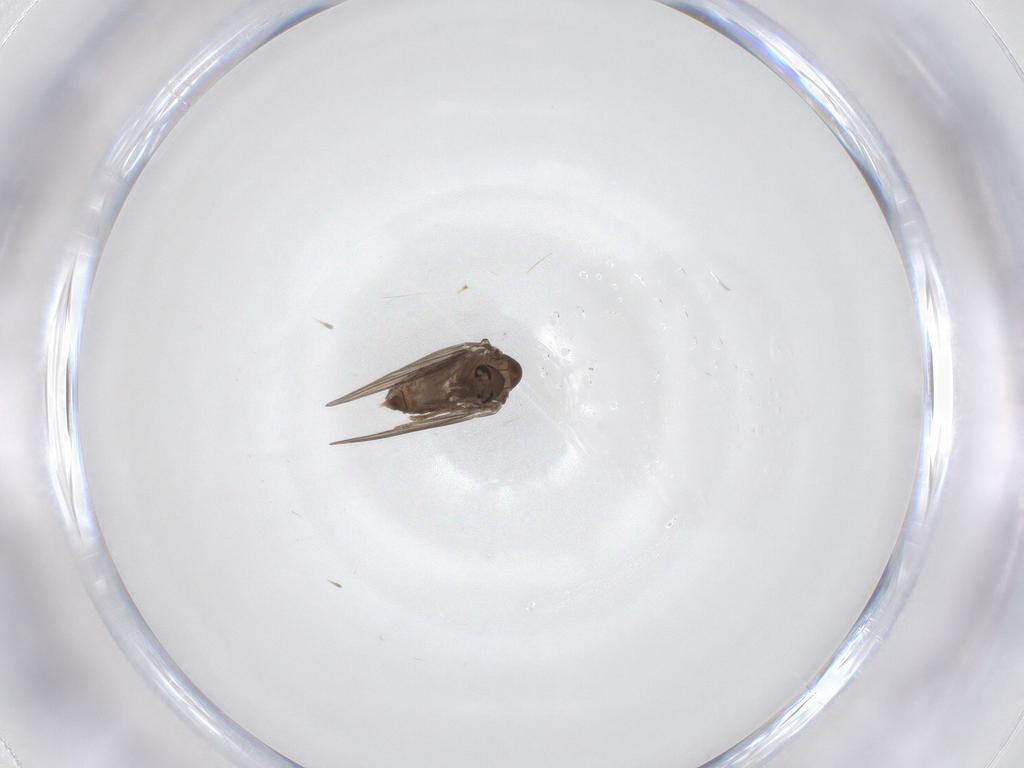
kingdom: Animalia
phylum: Arthropoda
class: Insecta
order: Diptera
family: Psychodidae
